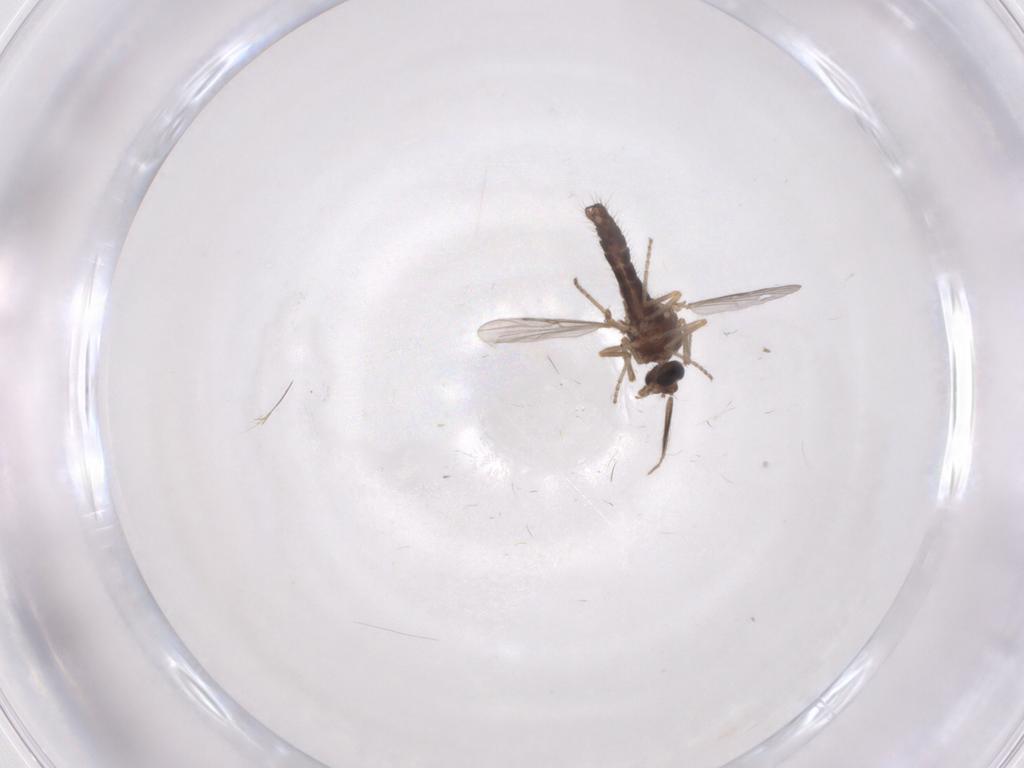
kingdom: Animalia
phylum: Arthropoda
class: Insecta
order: Diptera
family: Ceratopogonidae
